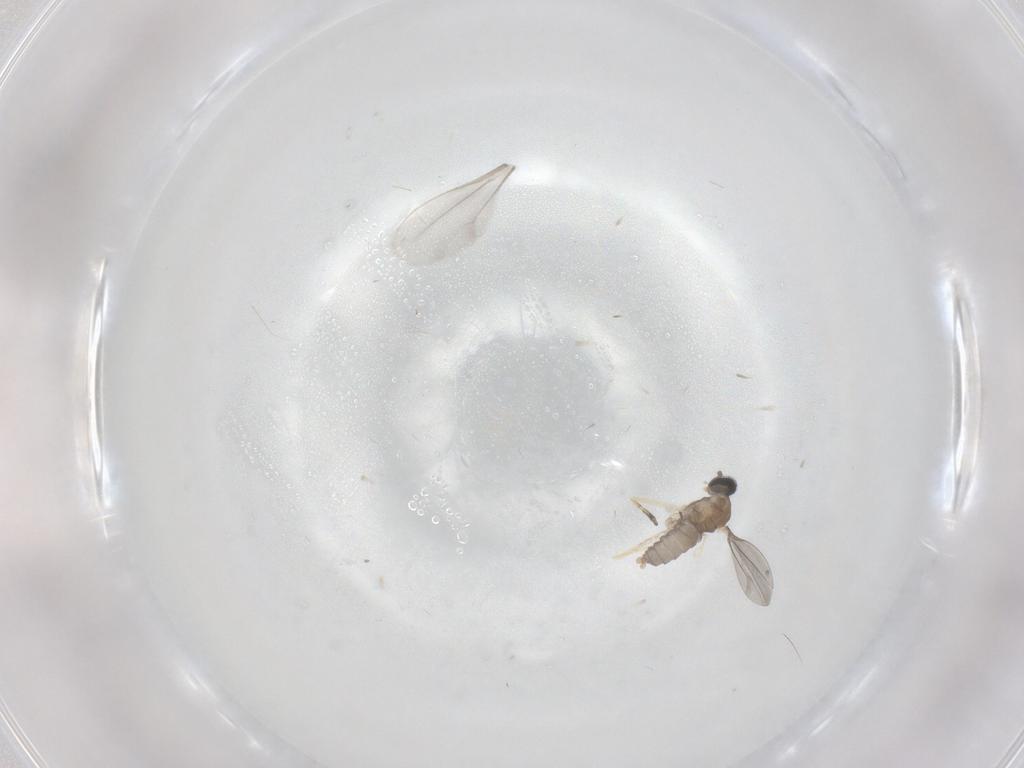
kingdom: Animalia
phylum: Arthropoda
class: Insecta
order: Diptera
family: Cecidomyiidae
